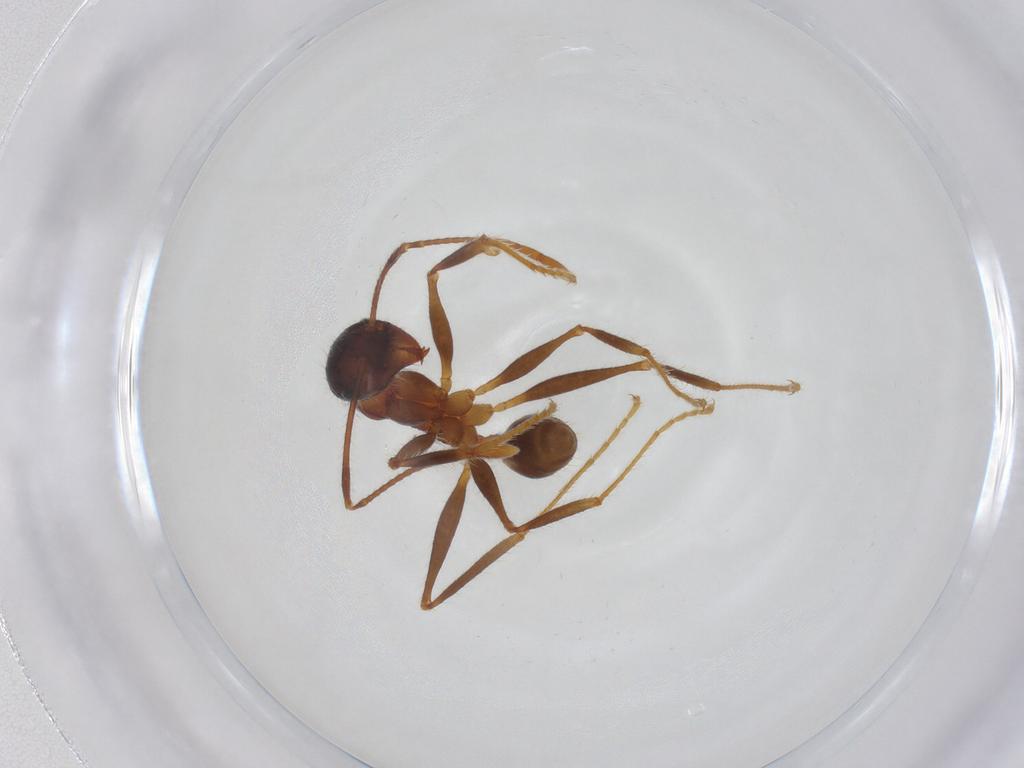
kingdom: Animalia
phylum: Arthropoda
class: Insecta
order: Hymenoptera
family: Formicidae
